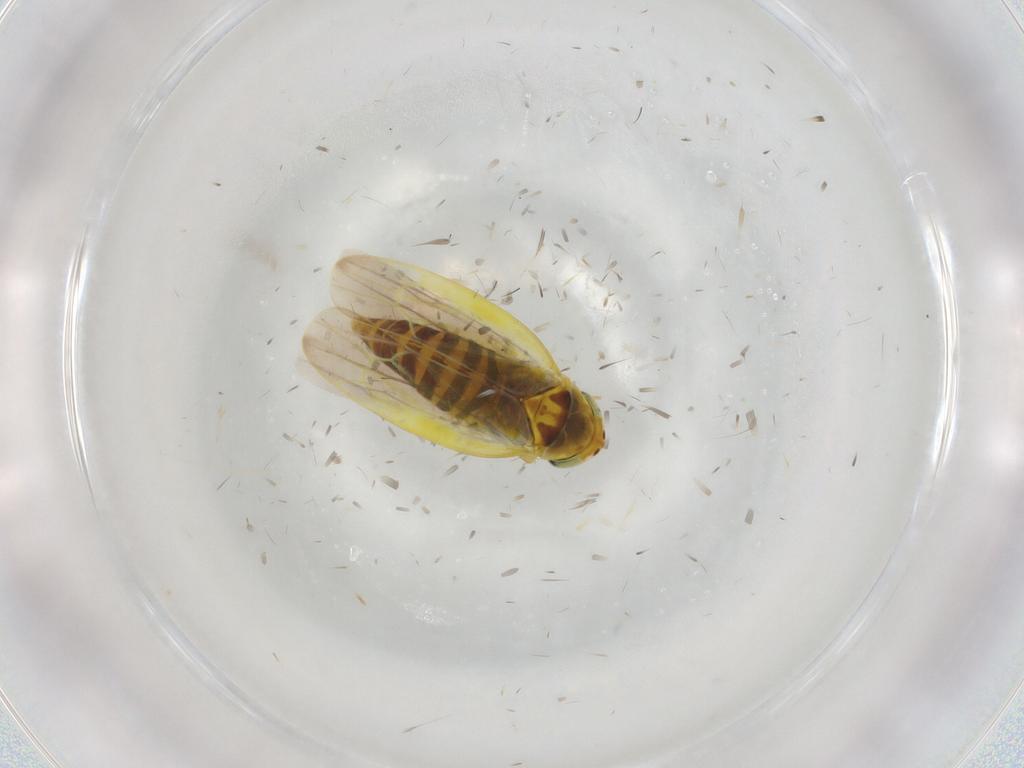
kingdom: Animalia
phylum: Arthropoda
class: Insecta
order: Hemiptera
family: Cicadellidae
